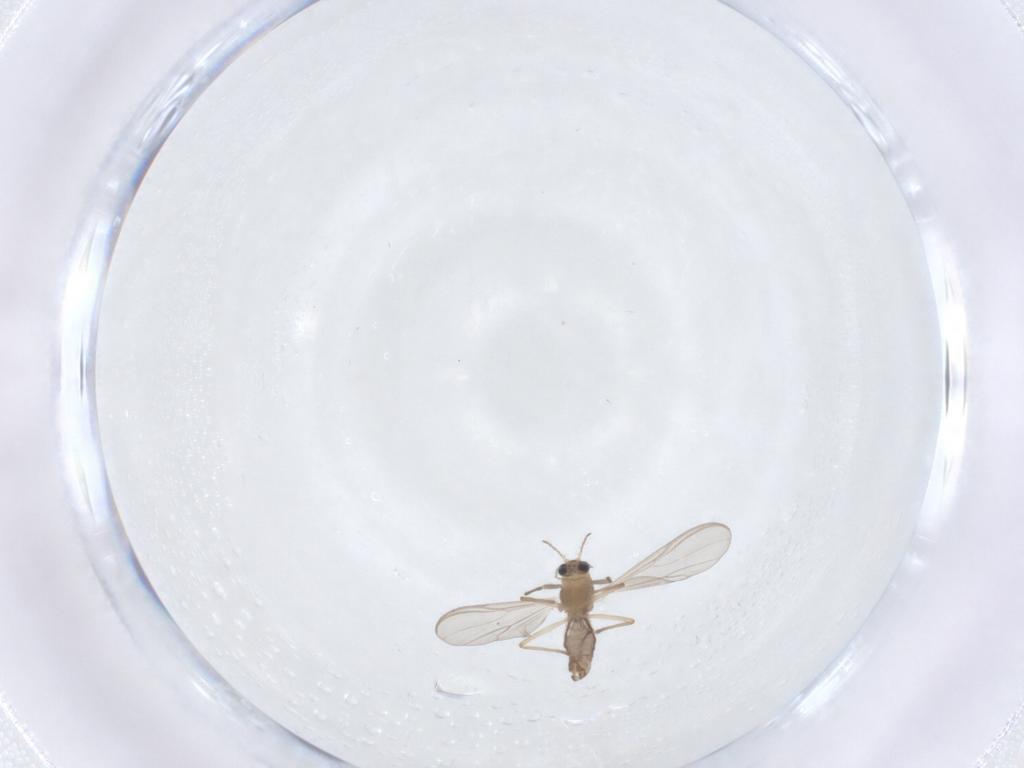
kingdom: Animalia
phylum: Arthropoda
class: Insecta
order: Diptera
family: Chironomidae
